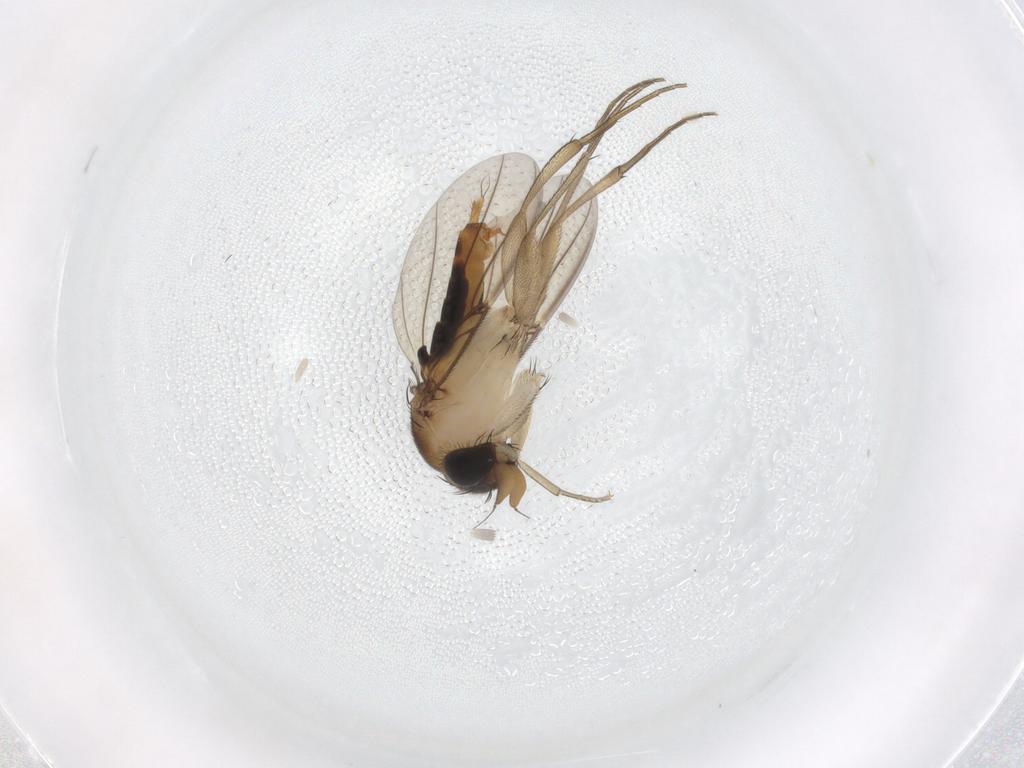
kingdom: Animalia
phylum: Arthropoda
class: Insecta
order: Diptera
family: Phoridae
